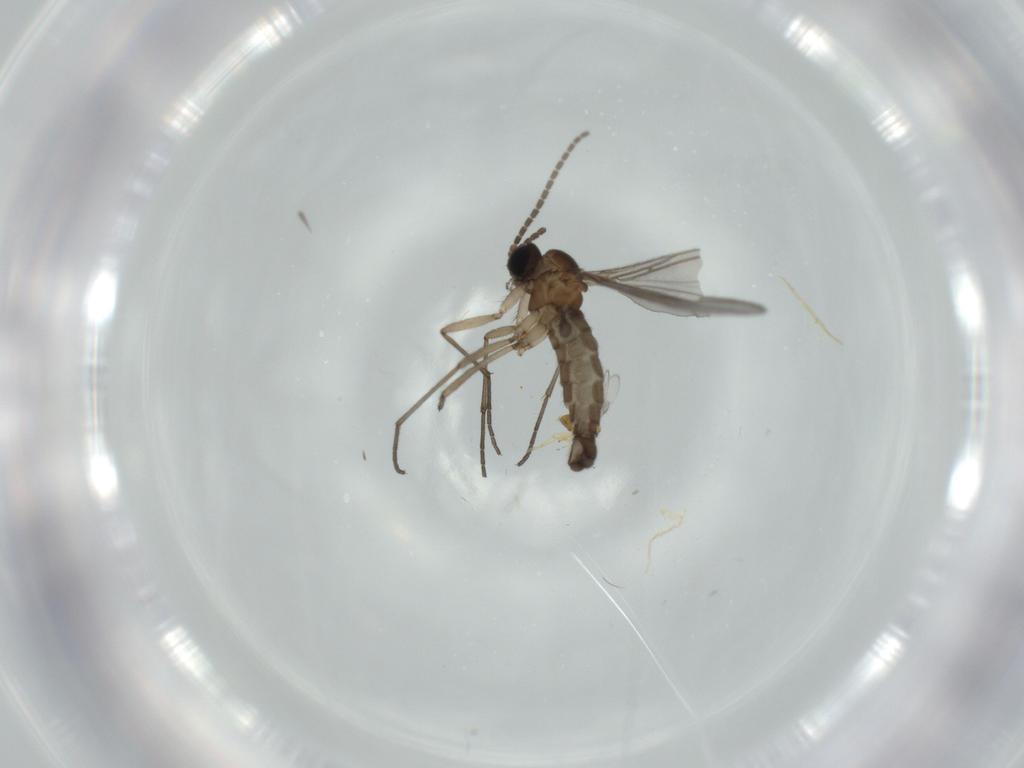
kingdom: Animalia
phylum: Arthropoda
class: Insecta
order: Diptera
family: Sciaridae
